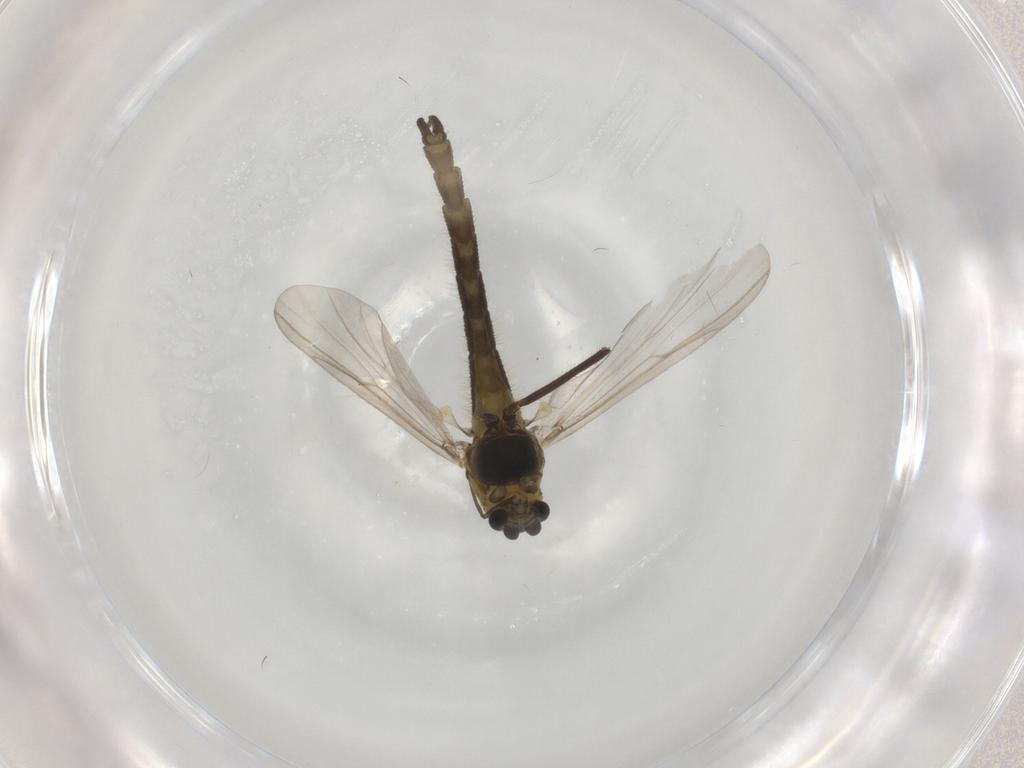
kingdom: Animalia
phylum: Arthropoda
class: Insecta
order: Diptera
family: Phoridae
